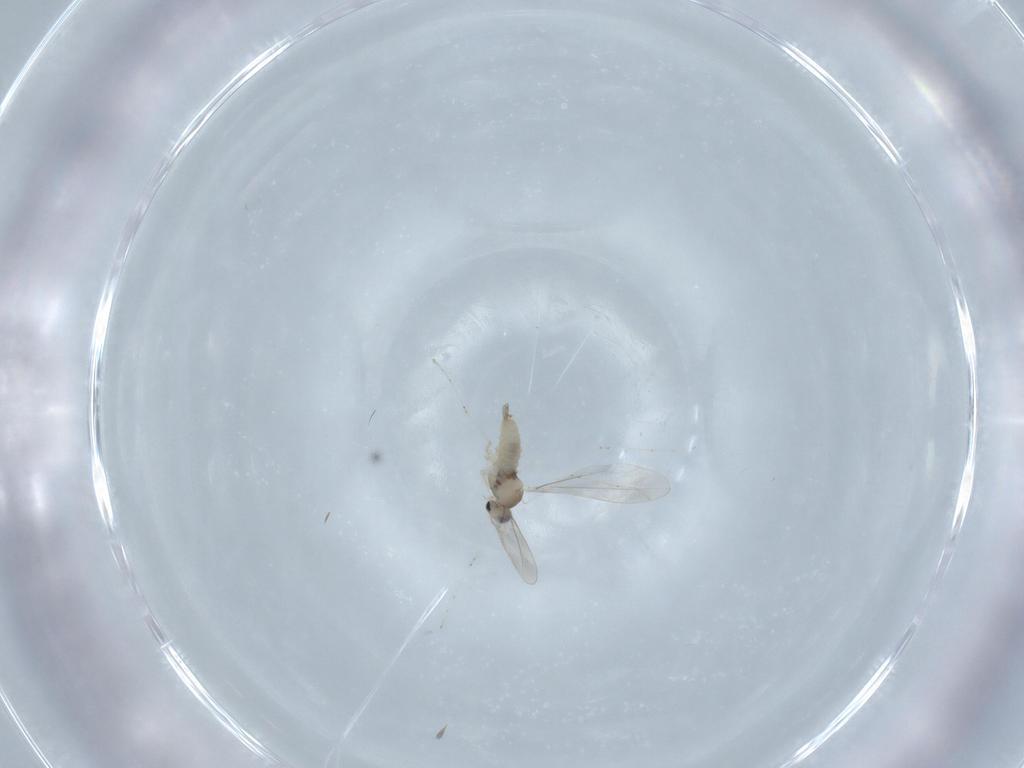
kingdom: Animalia
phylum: Arthropoda
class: Insecta
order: Diptera
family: Cecidomyiidae
